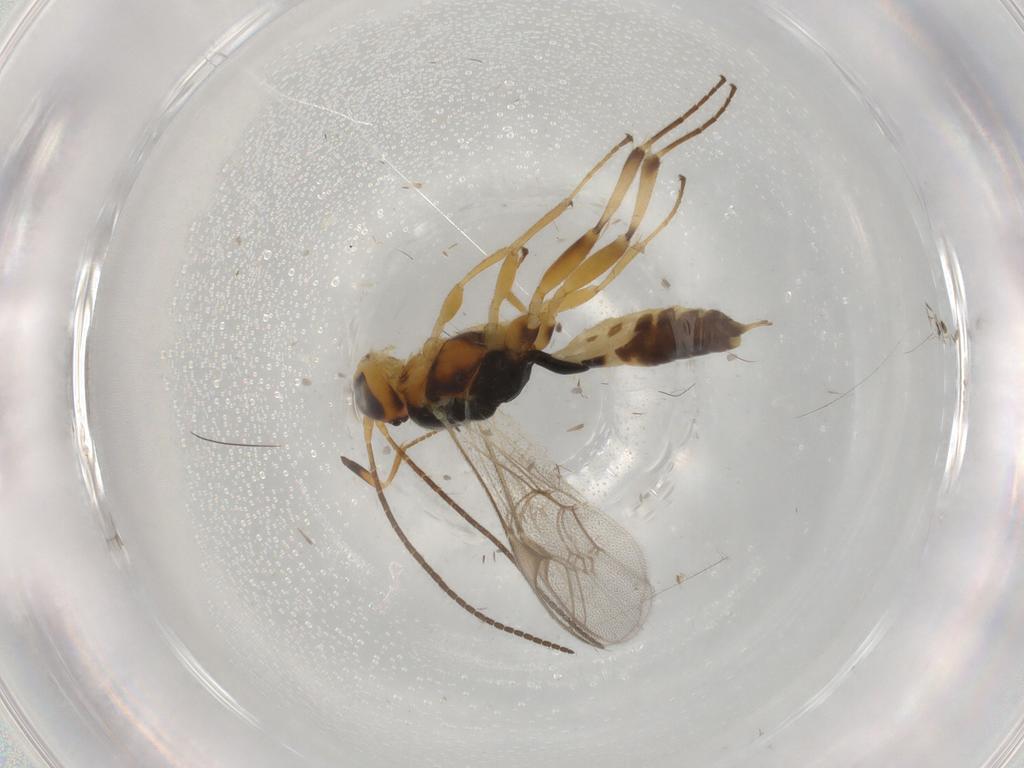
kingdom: Animalia
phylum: Arthropoda
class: Insecta
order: Hymenoptera
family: Ichneumonidae
